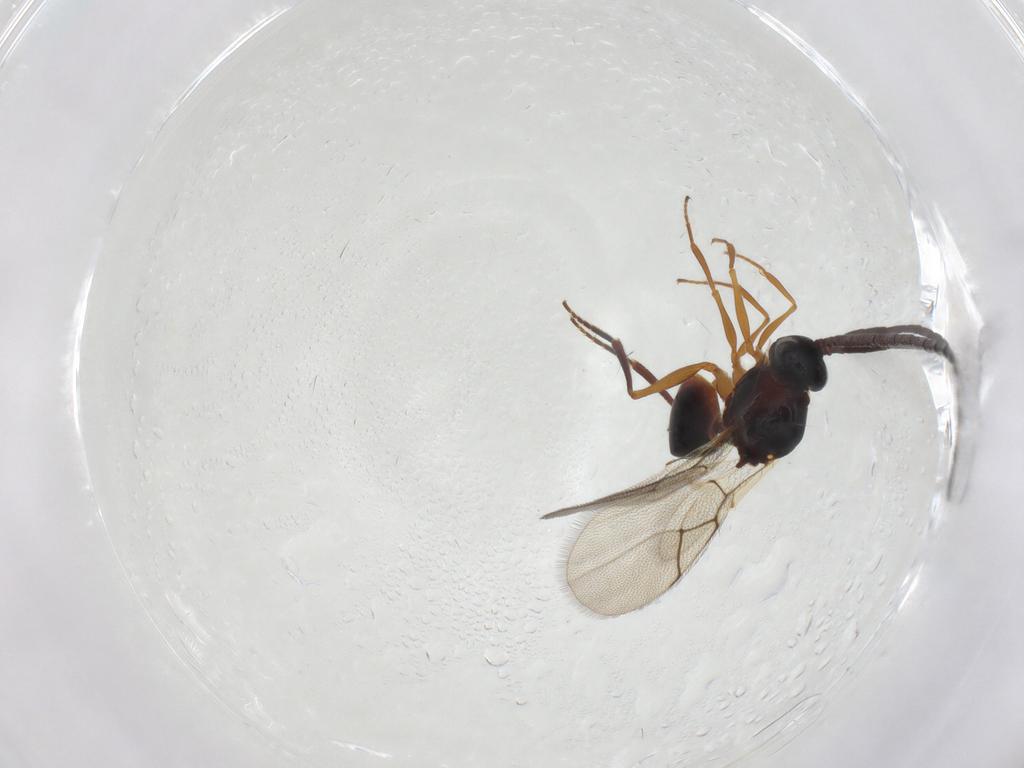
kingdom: Animalia
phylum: Arthropoda
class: Insecta
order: Hymenoptera
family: Figitidae
